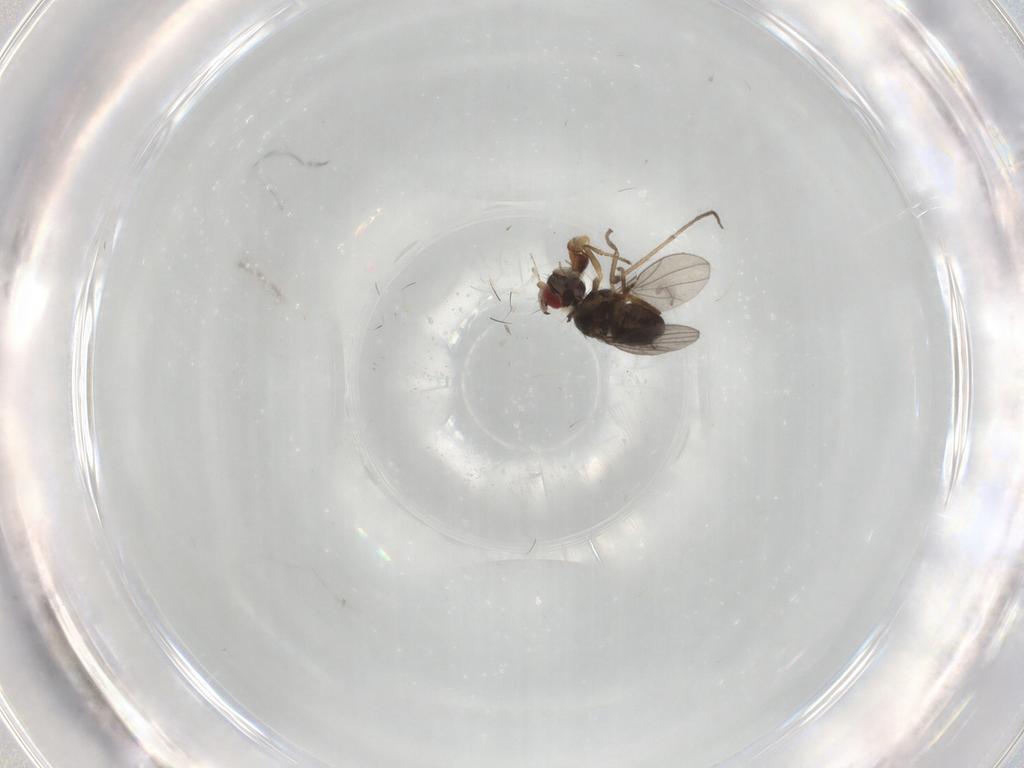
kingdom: Animalia
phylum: Arthropoda
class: Insecta
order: Diptera
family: Ephydridae
